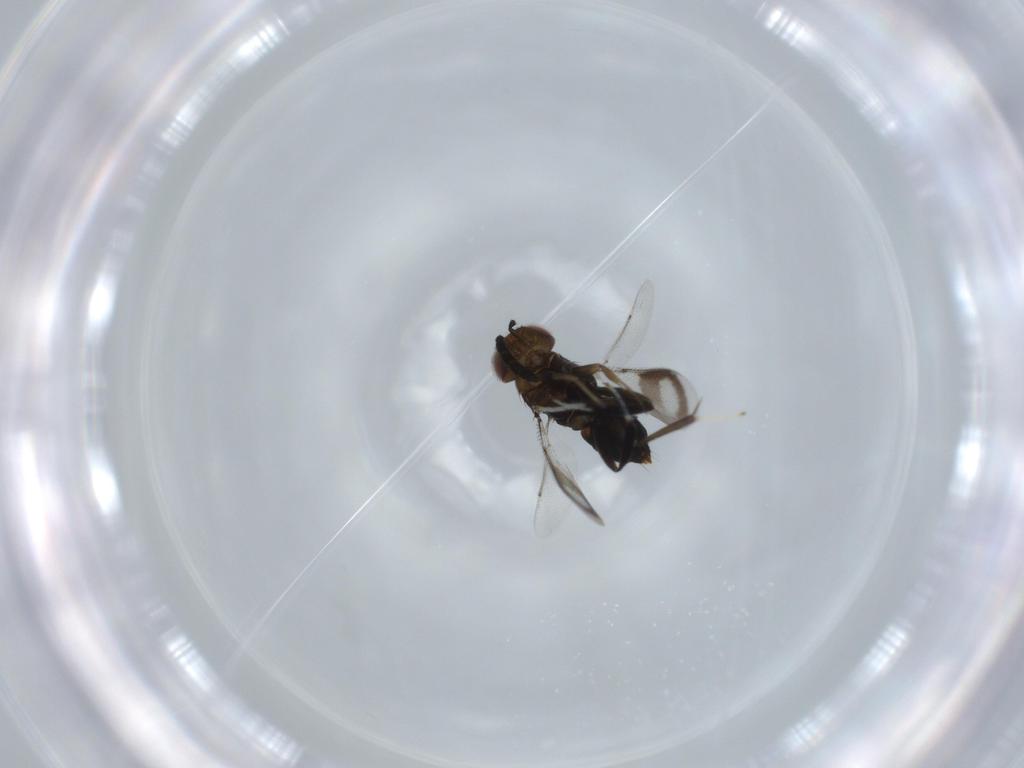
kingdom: Animalia
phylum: Arthropoda
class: Insecta
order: Hymenoptera
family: Aphelinidae
